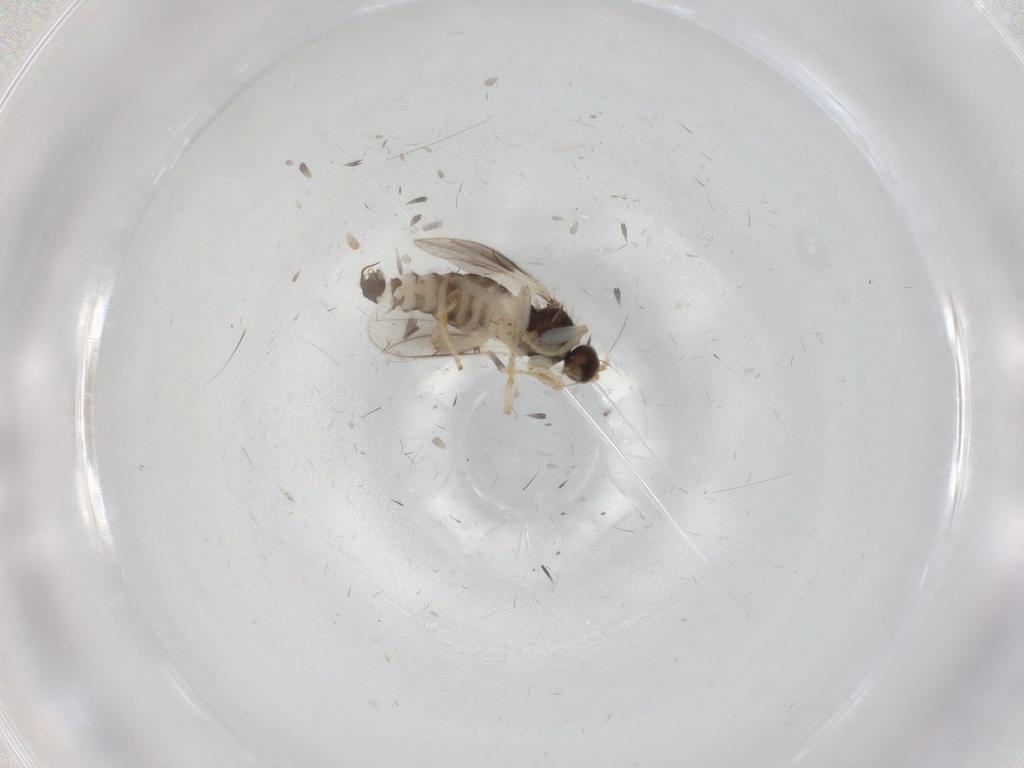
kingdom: Animalia
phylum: Arthropoda
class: Insecta
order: Diptera
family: Hybotidae
